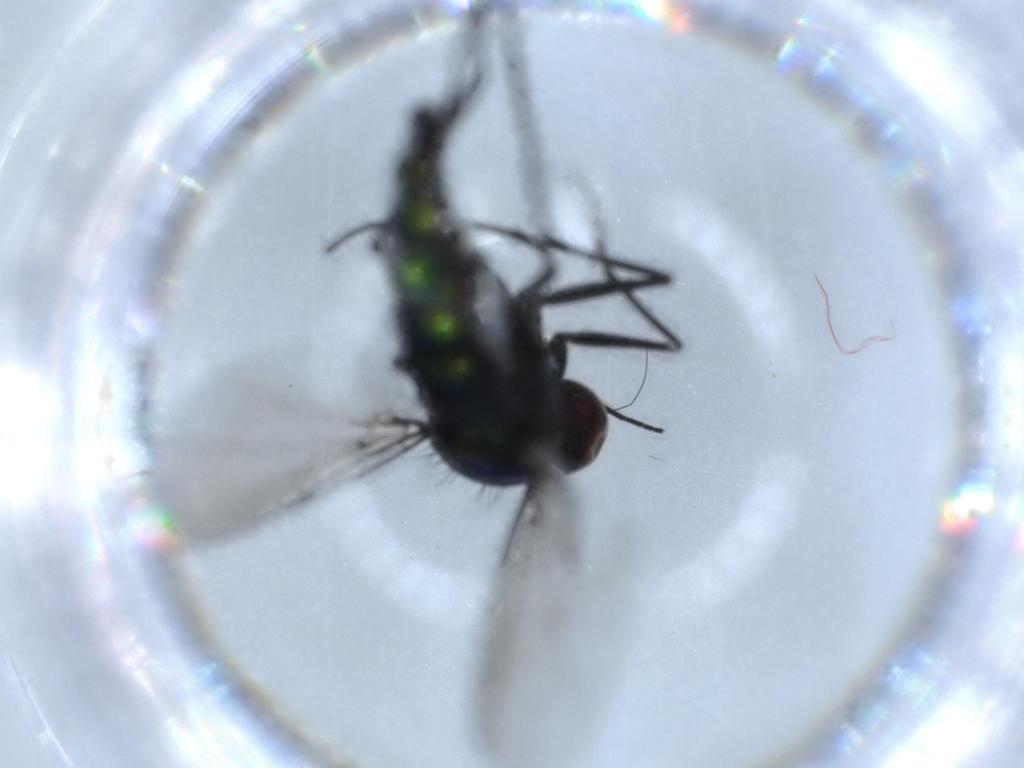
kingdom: Animalia
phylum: Arthropoda
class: Insecta
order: Diptera
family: Dolichopodidae
